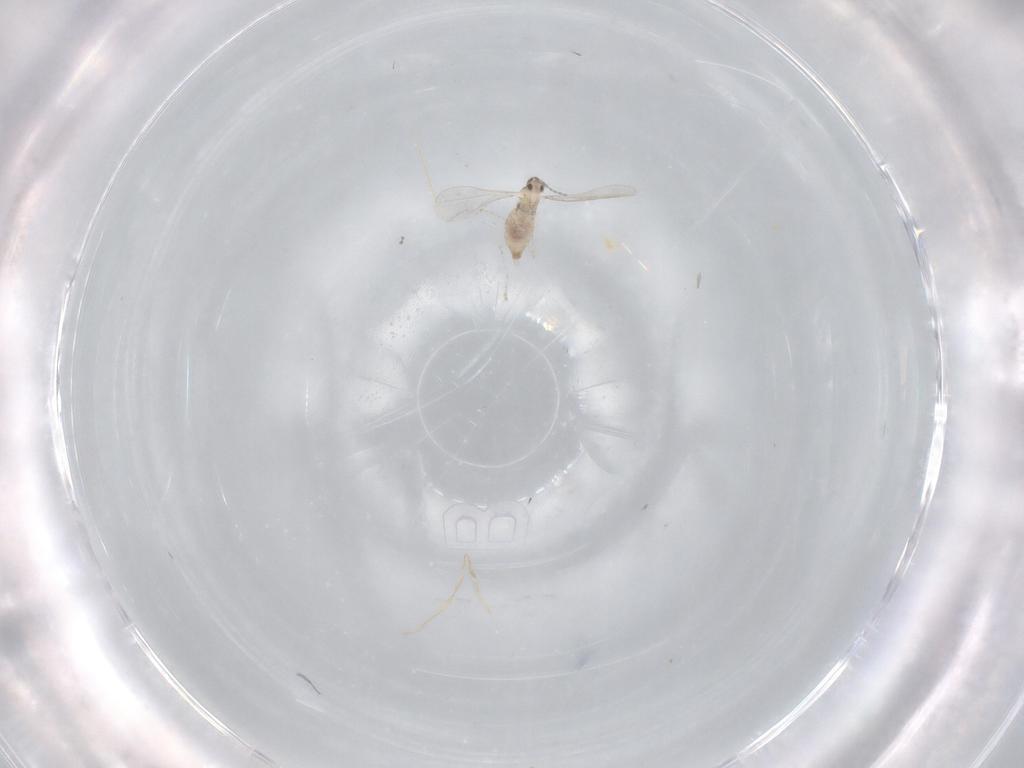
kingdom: Animalia
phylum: Arthropoda
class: Insecta
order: Diptera
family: Cecidomyiidae
